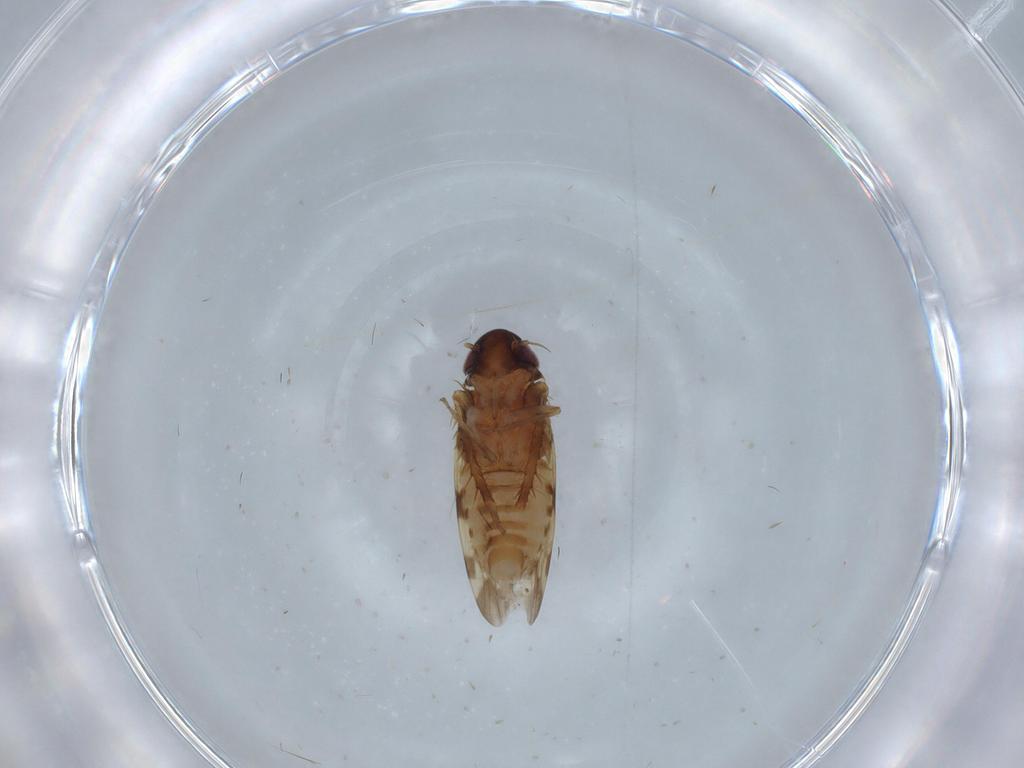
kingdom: Animalia
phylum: Arthropoda
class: Insecta
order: Hemiptera
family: Cicadellidae
